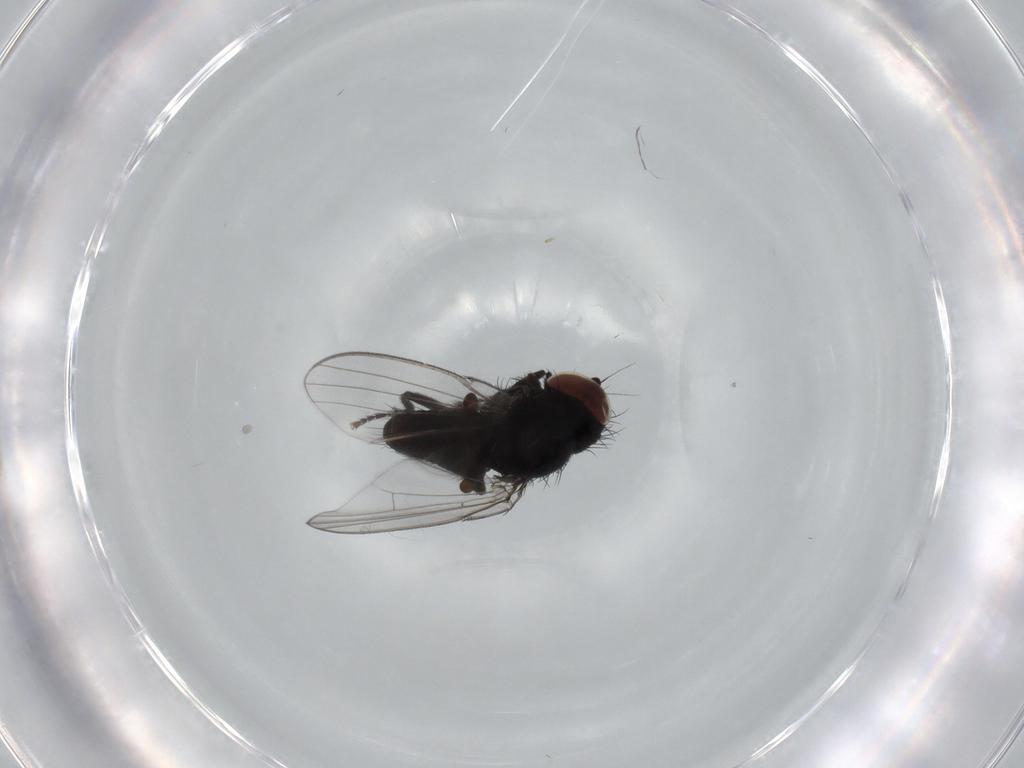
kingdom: Animalia
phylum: Arthropoda
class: Insecta
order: Diptera
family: Milichiidae
